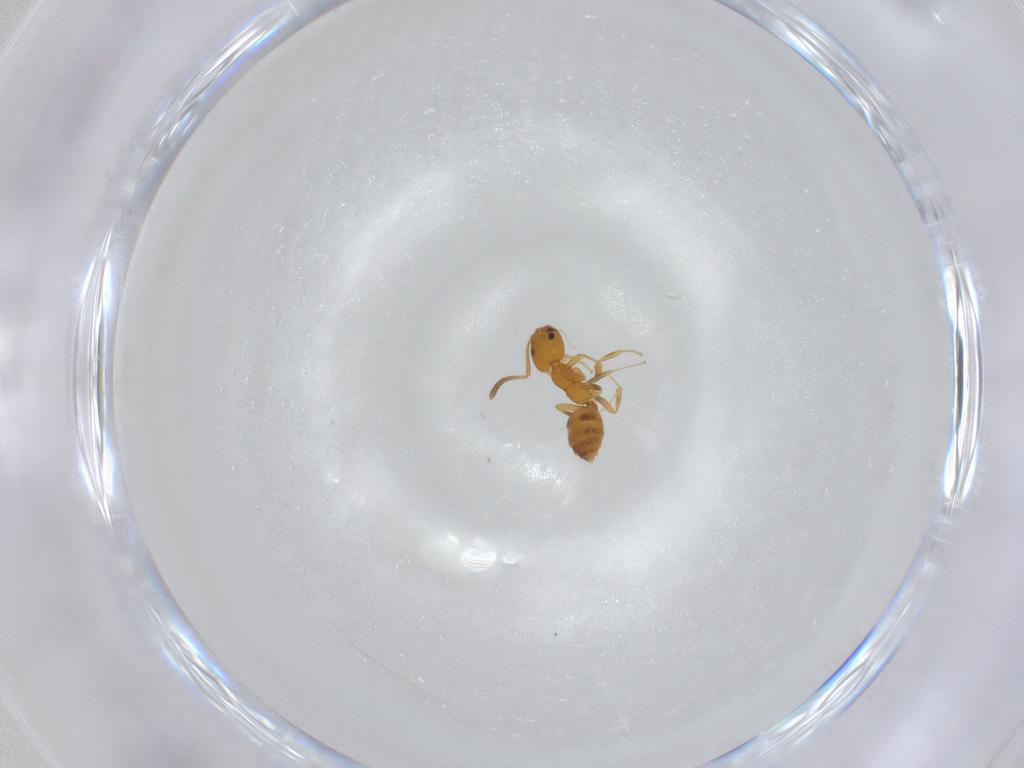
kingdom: Animalia
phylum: Arthropoda
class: Insecta
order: Hymenoptera
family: Formicidae
